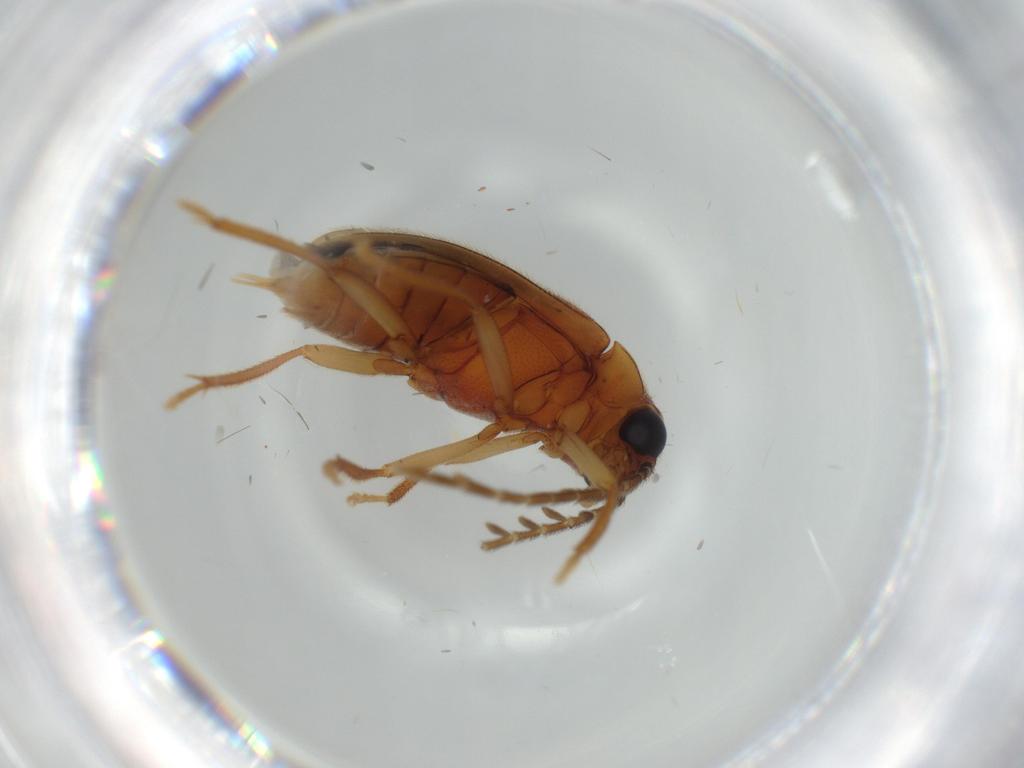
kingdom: Animalia
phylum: Arthropoda
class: Insecta
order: Coleoptera
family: Ptilodactylidae
